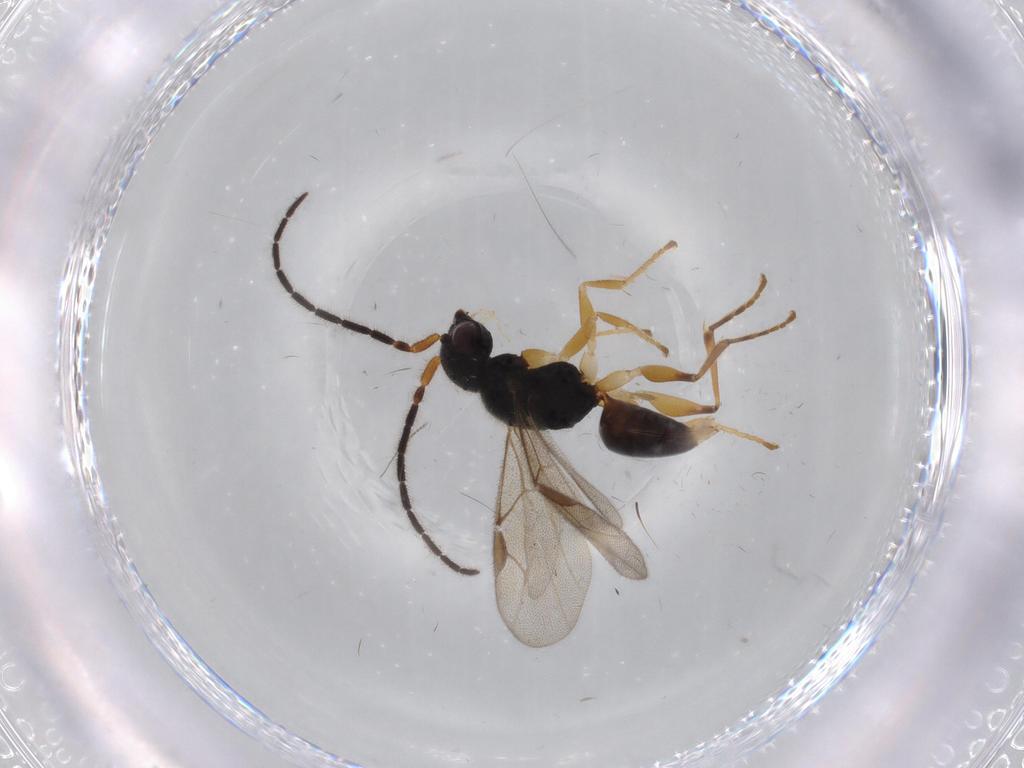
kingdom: Animalia
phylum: Arthropoda
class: Insecta
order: Hymenoptera
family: Dryinidae
